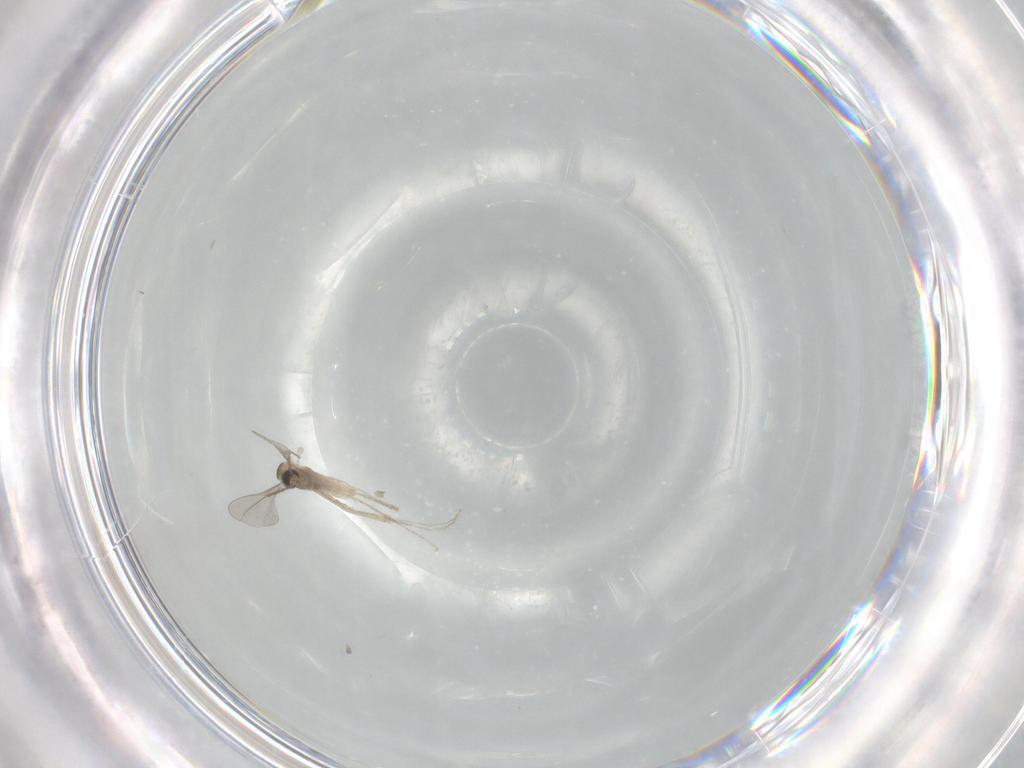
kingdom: Animalia
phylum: Arthropoda
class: Insecta
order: Diptera
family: Cecidomyiidae
